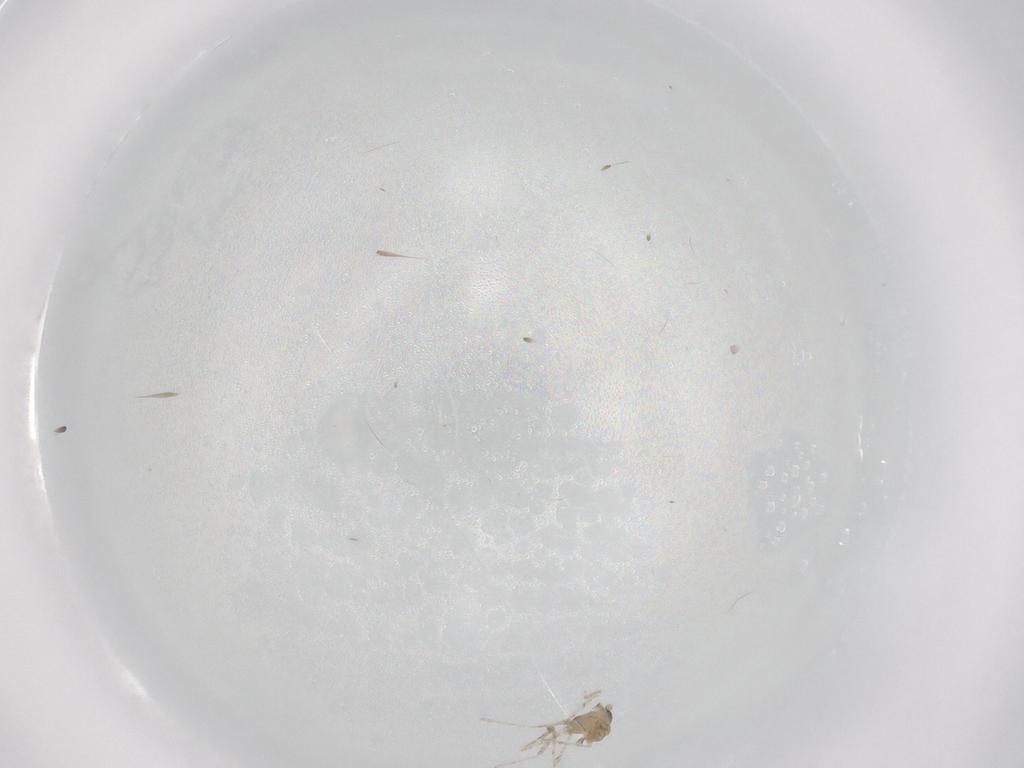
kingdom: Animalia
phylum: Arthropoda
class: Insecta
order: Diptera
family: Cecidomyiidae
